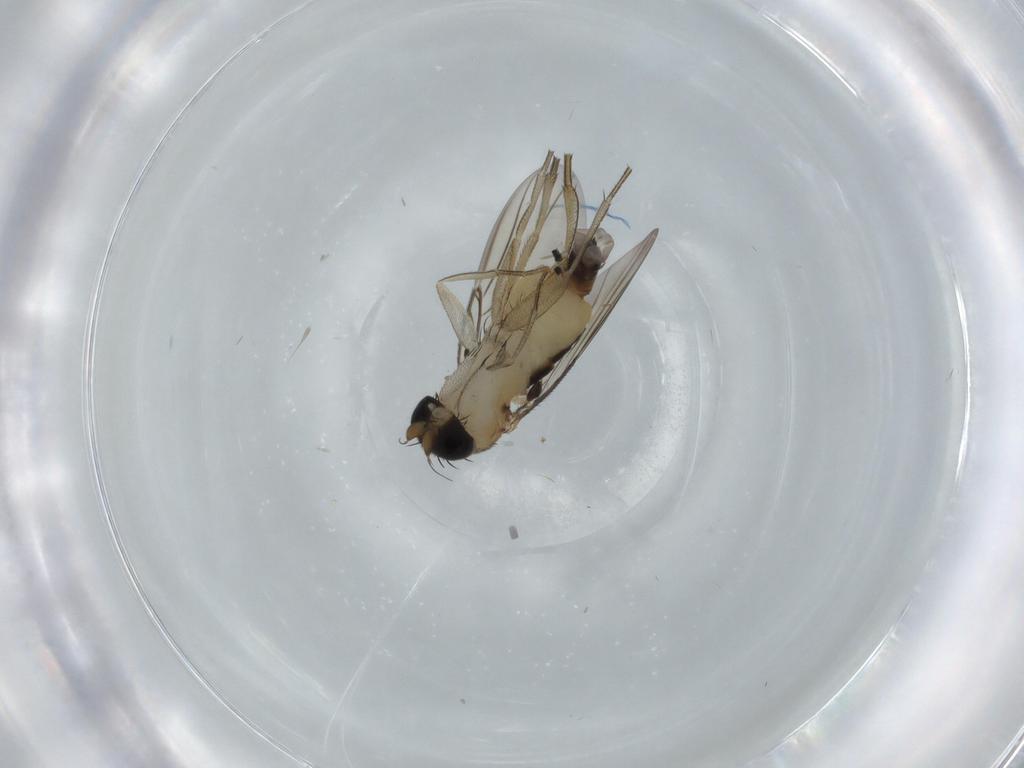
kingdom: Animalia
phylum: Arthropoda
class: Insecta
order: Diptera
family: Phoridae
